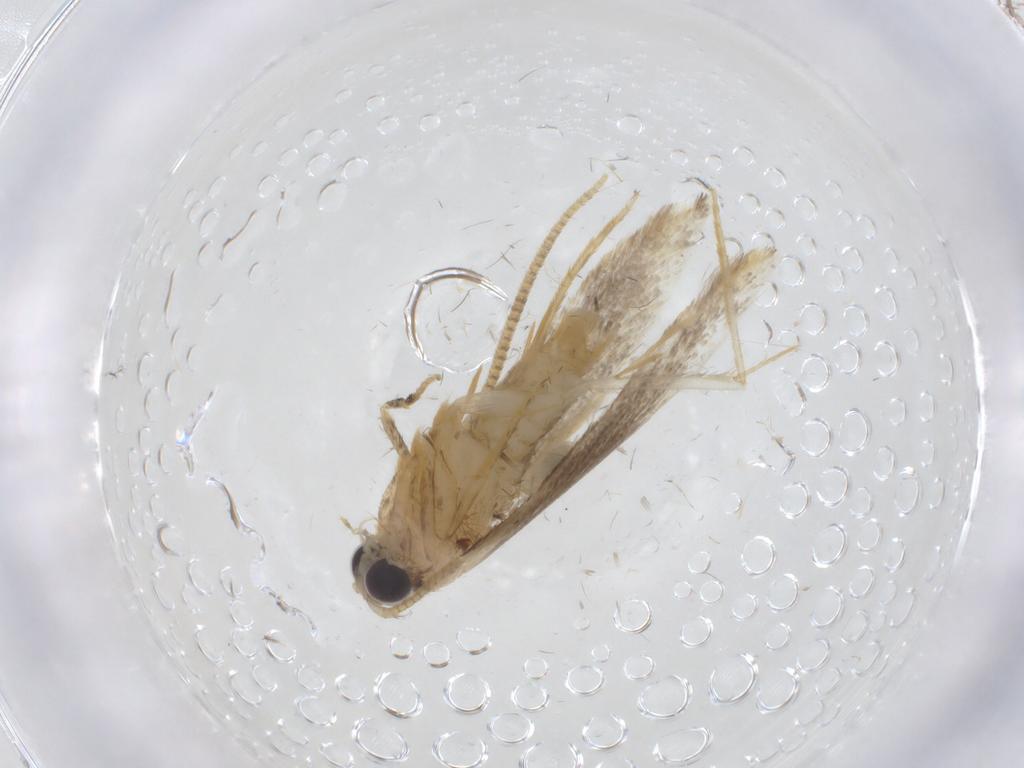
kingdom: Animalia
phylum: Arthropoda
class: Insecta
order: Lepidoptera
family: Tineidae
